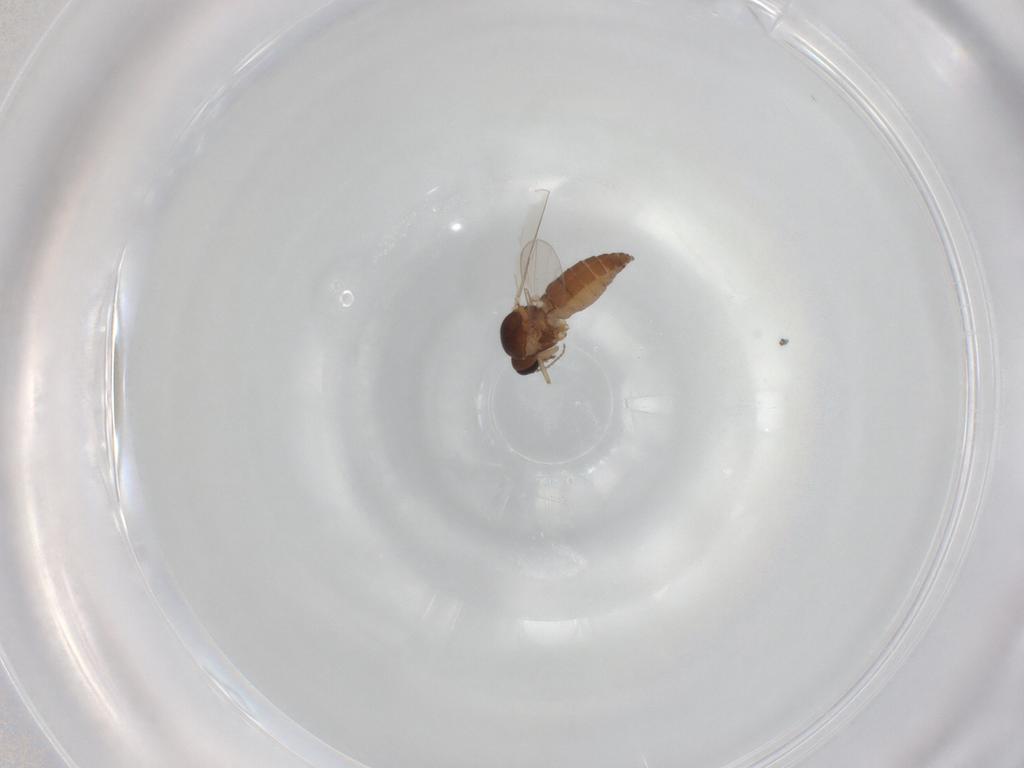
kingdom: Animalia
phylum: Arthropoda
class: Insecta
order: Diptera
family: Ceratopogonidae
